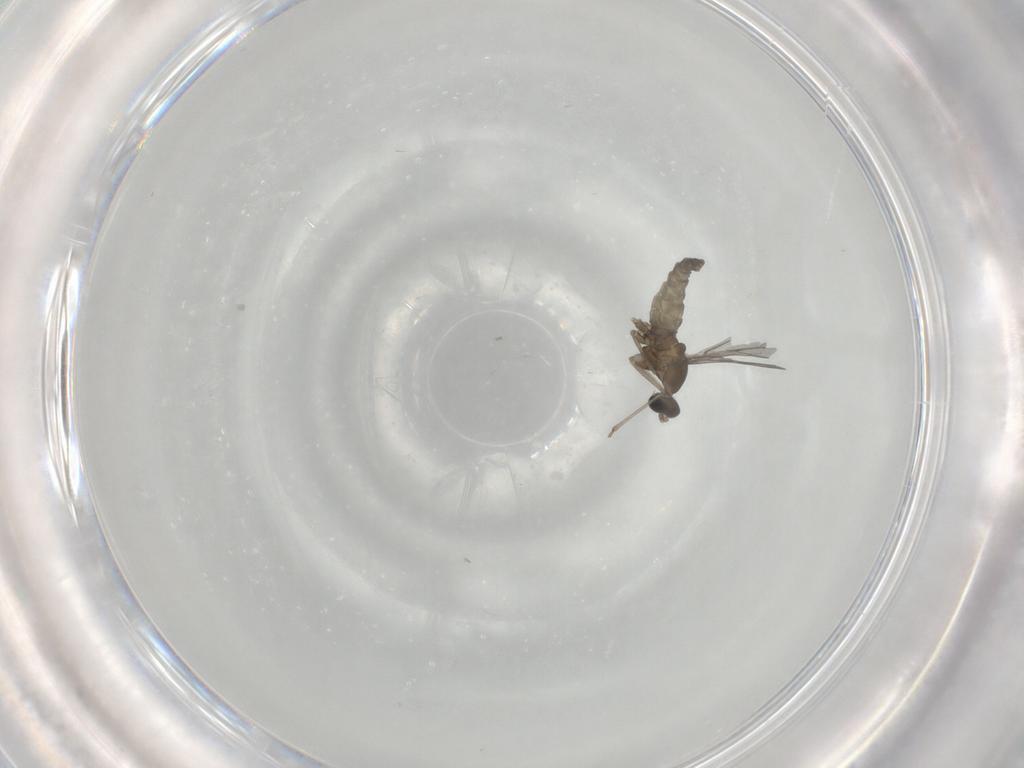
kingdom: Animalia
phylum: Arthropoda
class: Insecta
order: Diptera
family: Cecidomyiidae
